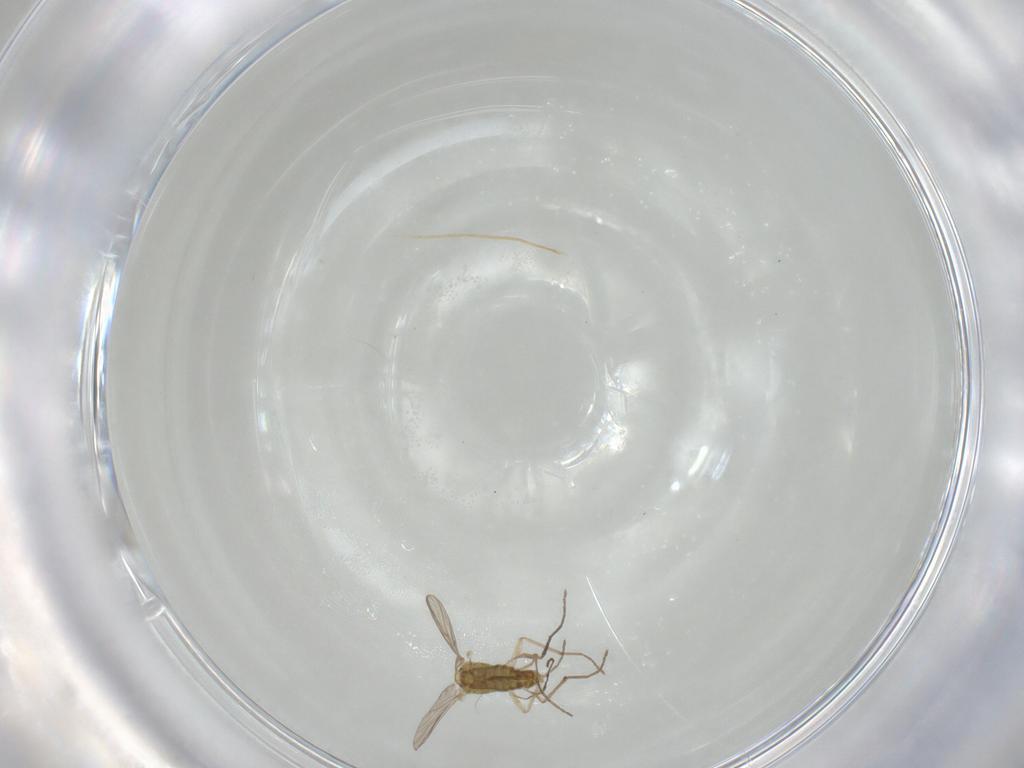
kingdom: Animalia
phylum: Arthropoda
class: Insecta
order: Diptera
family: Chironomidae
